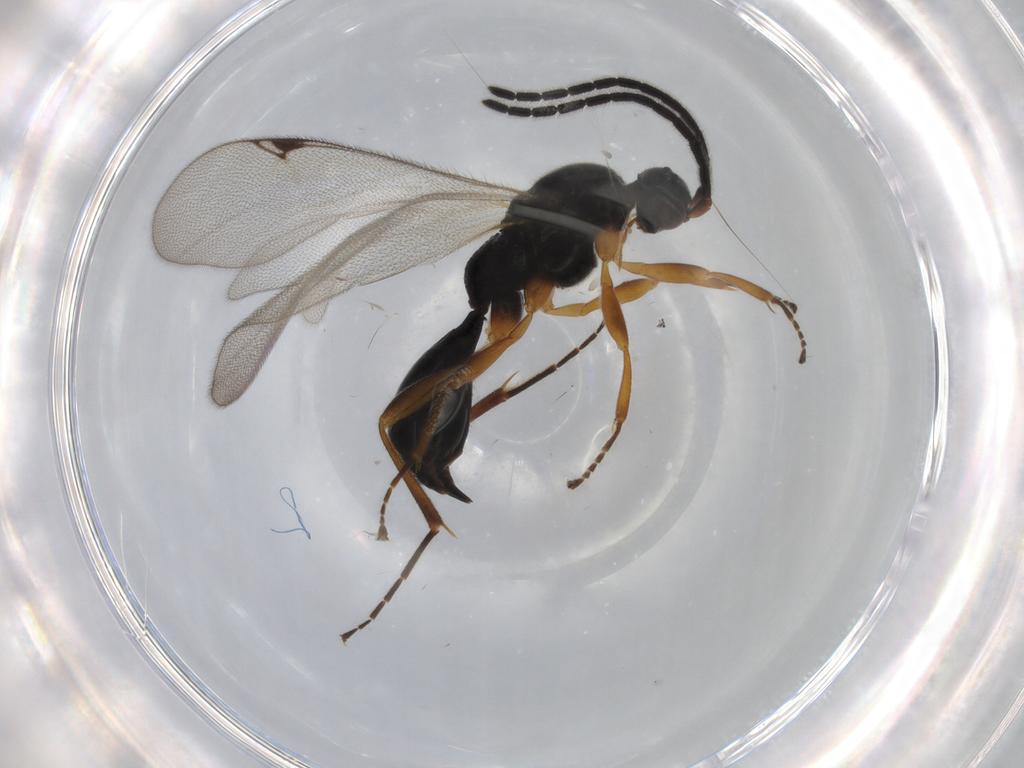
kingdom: Animalia
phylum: Arthropoda
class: Insecta
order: Hymenoptera
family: Proctotrupidae
